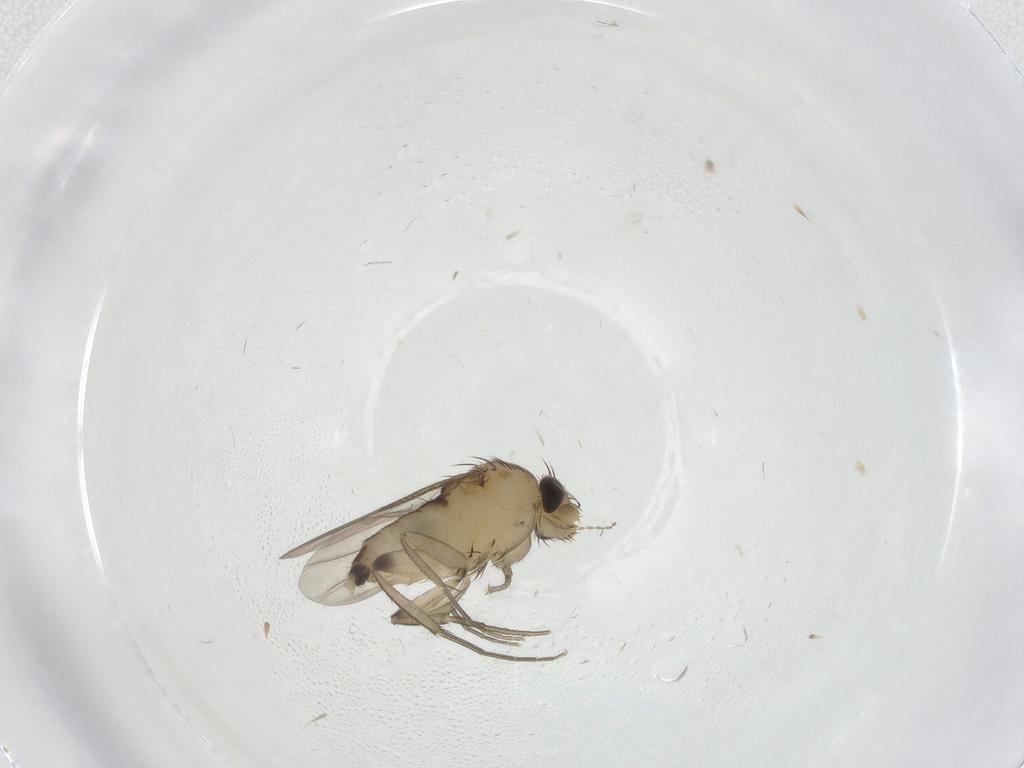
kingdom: Animalia
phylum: Arthropoda
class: Insecta
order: Diptera
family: Phoridae
